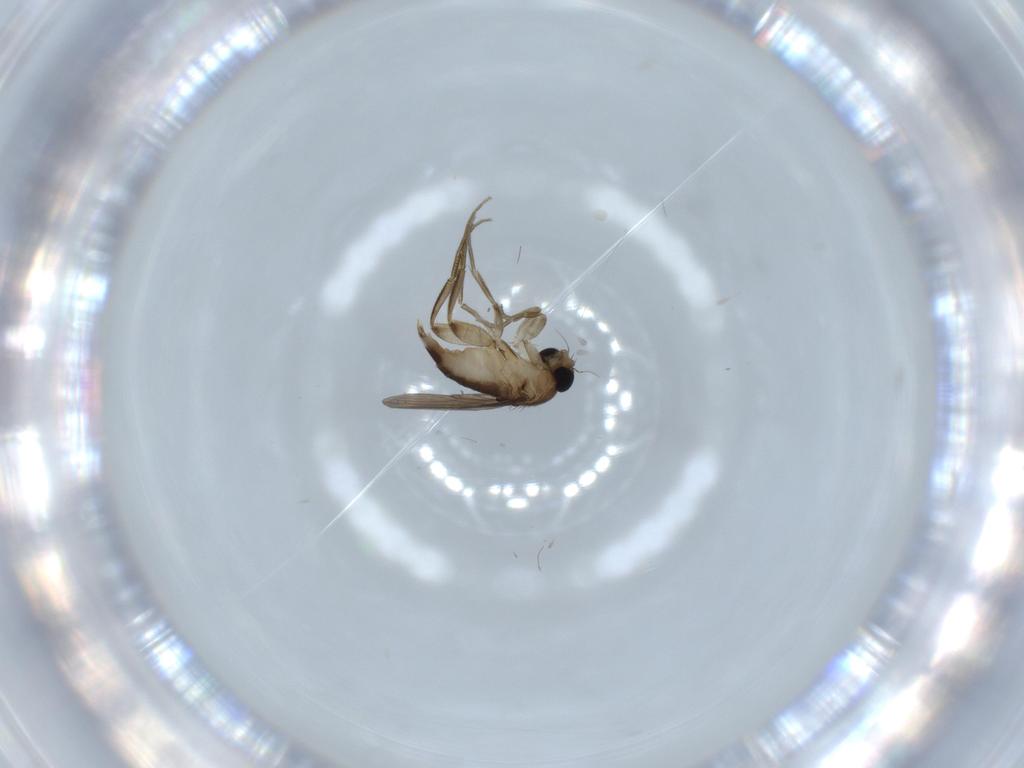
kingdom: Animalia
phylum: Arthropoda
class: Insecta
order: Diptera
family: Phoridae
